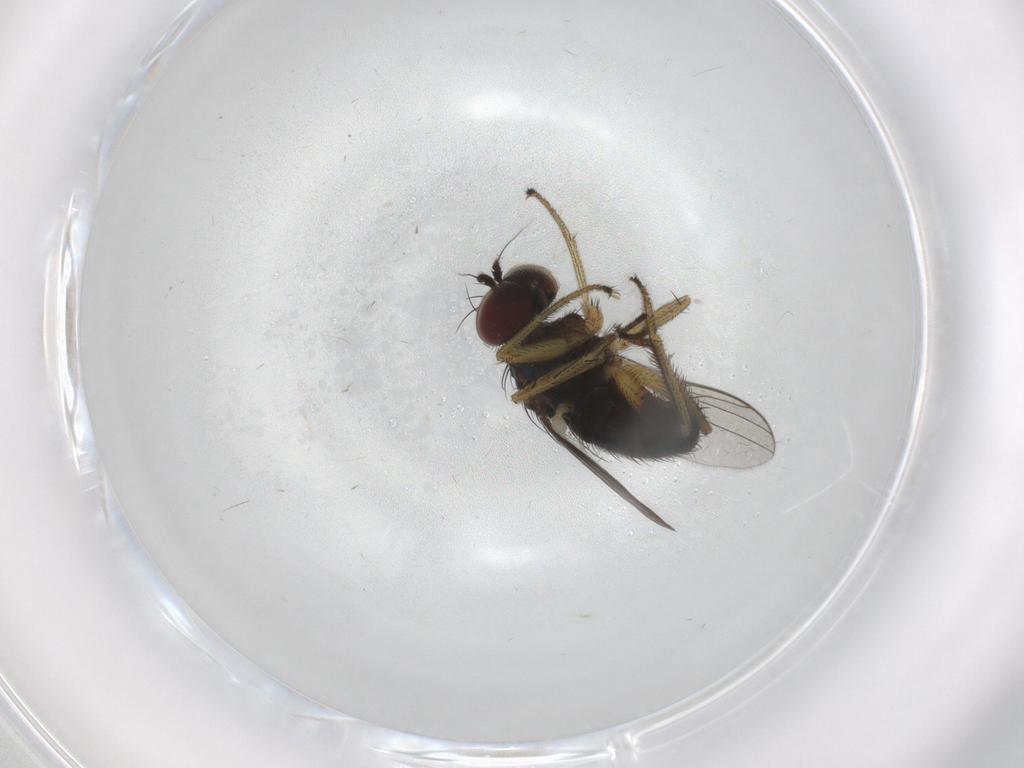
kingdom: Animalia
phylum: Arthropoda
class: Insecta
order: Diptera
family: Dolichopodidae
